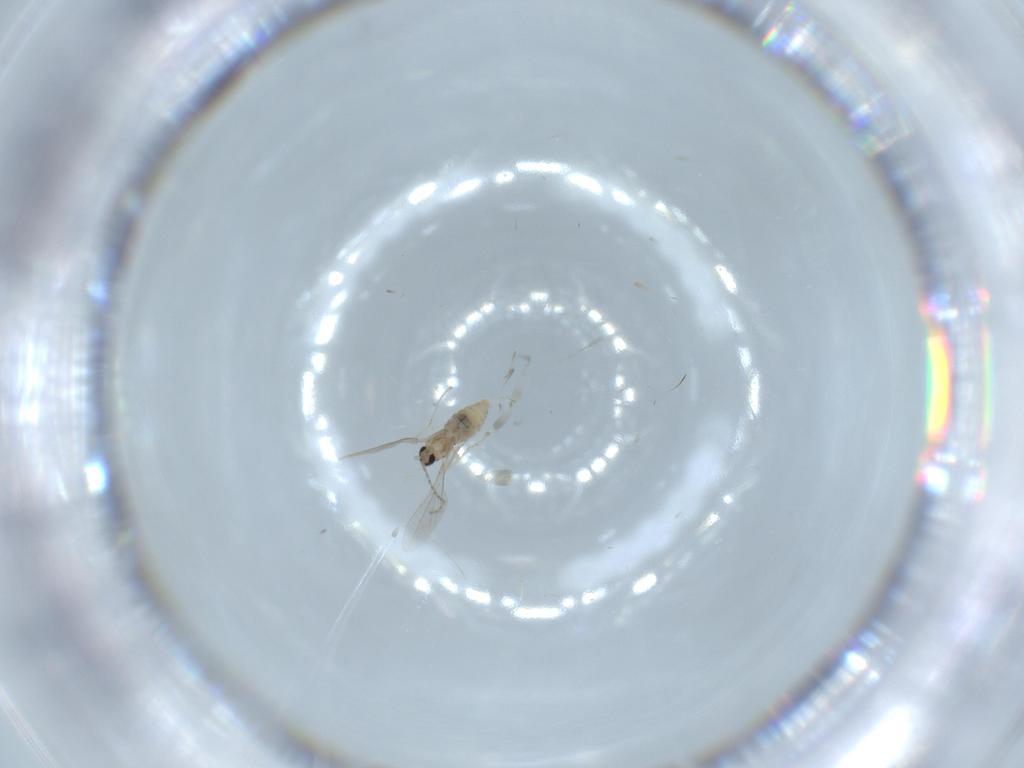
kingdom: Animalia
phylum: Arthropoda
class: Insecta
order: Diptera
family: Cecidomyiidae
